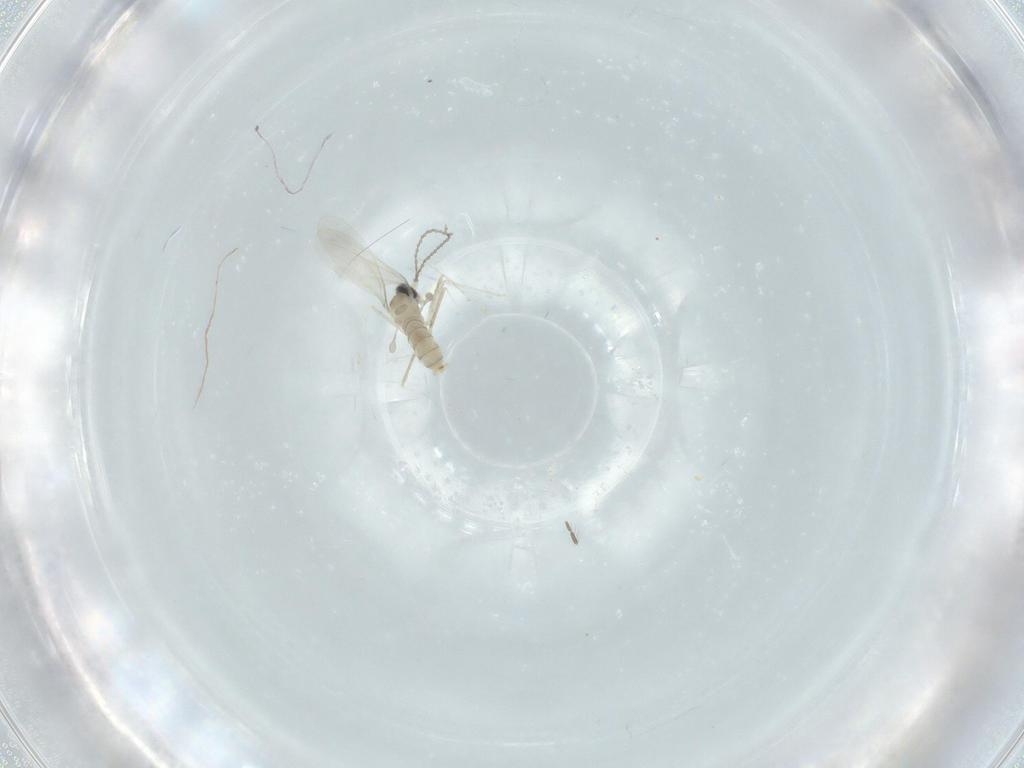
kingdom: Animalia
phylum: Arthropoda
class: Insecta
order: Diptera
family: Cecidomyiidae
